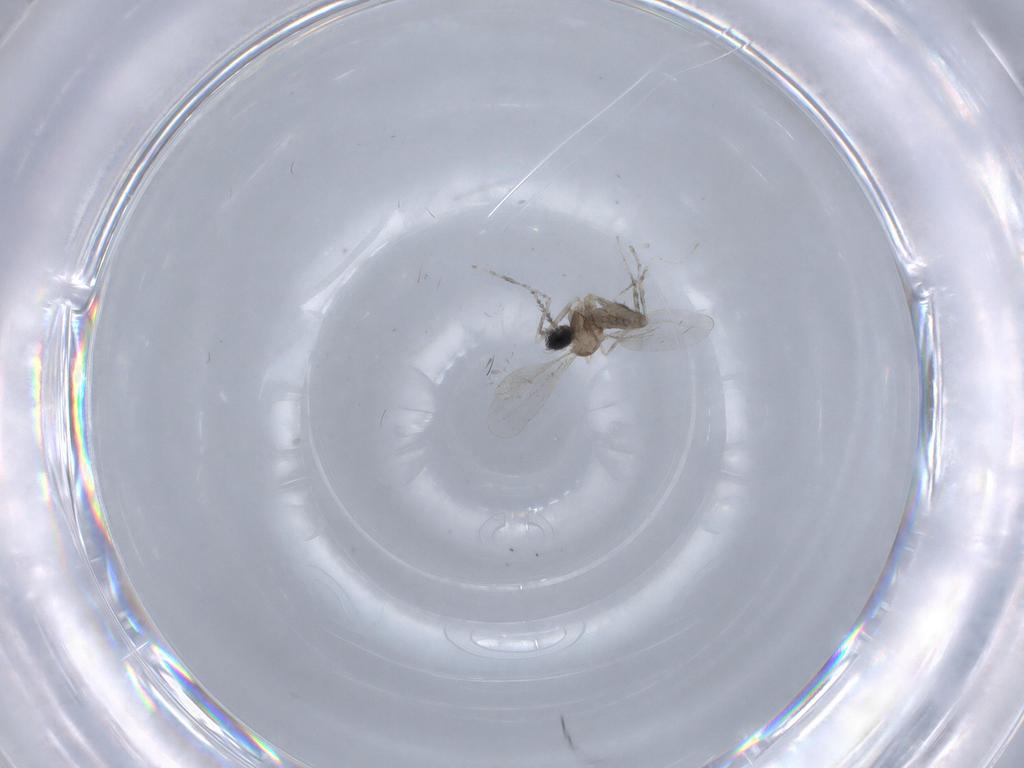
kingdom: Animalia
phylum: Arthropoda
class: Insecta
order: Diptera
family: Cecidomyiidae
